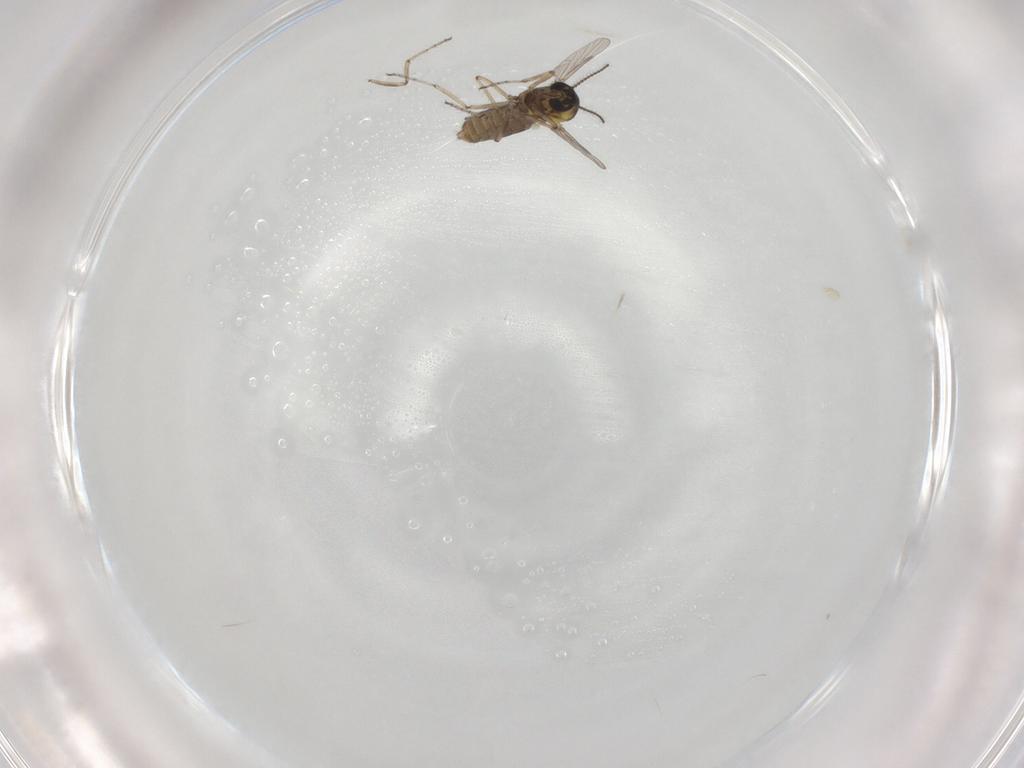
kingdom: Animalia
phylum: Arthropoda
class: Insecta
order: Diptera
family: Ceratopogonidae
